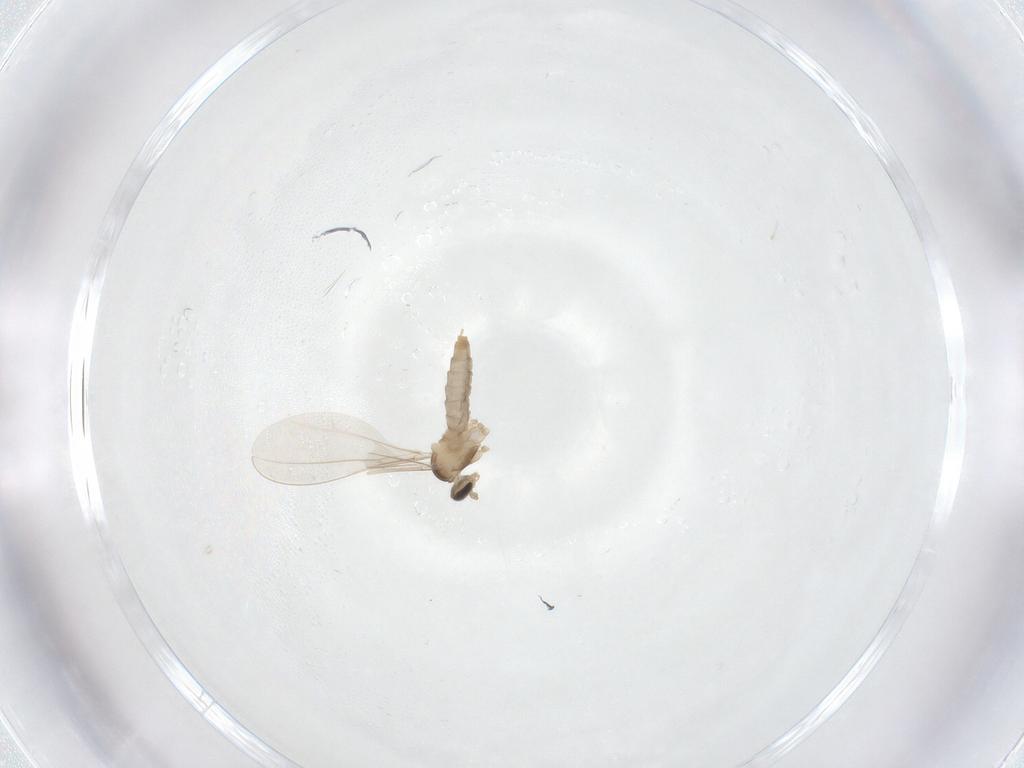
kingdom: Animalia
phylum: Arthropoda
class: Insecta
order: Diptera
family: Cecidomyiidae
